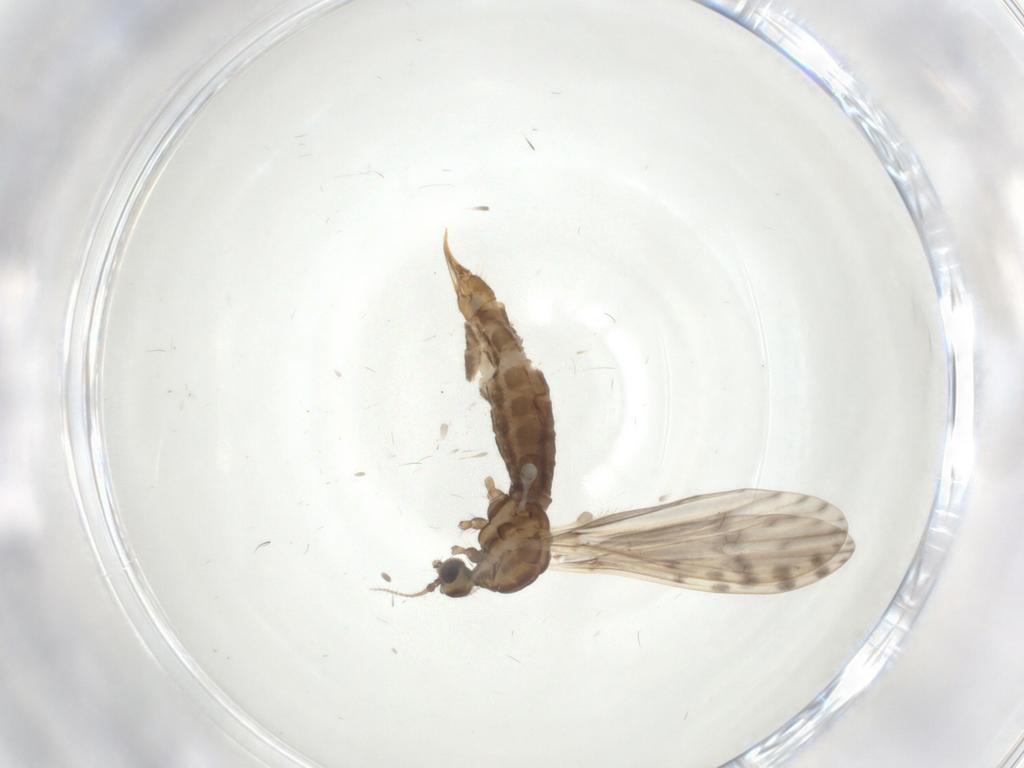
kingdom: Animalia
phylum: Arthropoda
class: Insecta
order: Diptera
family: Limoniidae
